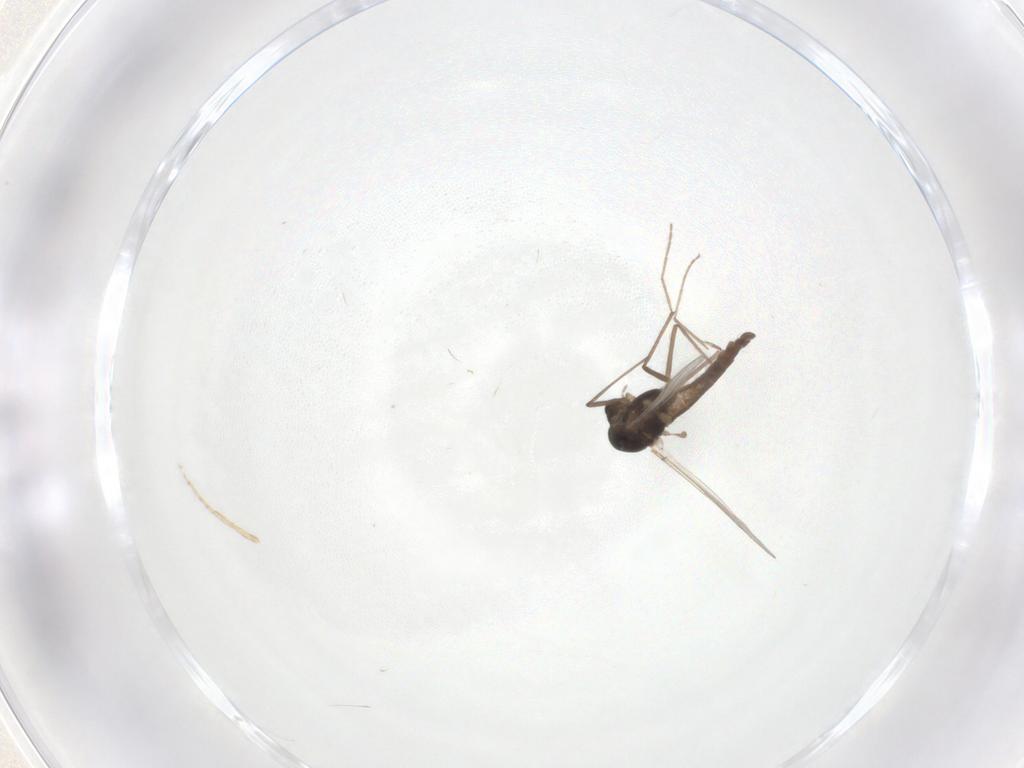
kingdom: Animalia
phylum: Arthropoda
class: Insecta
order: Diptera
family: Chironomidae
